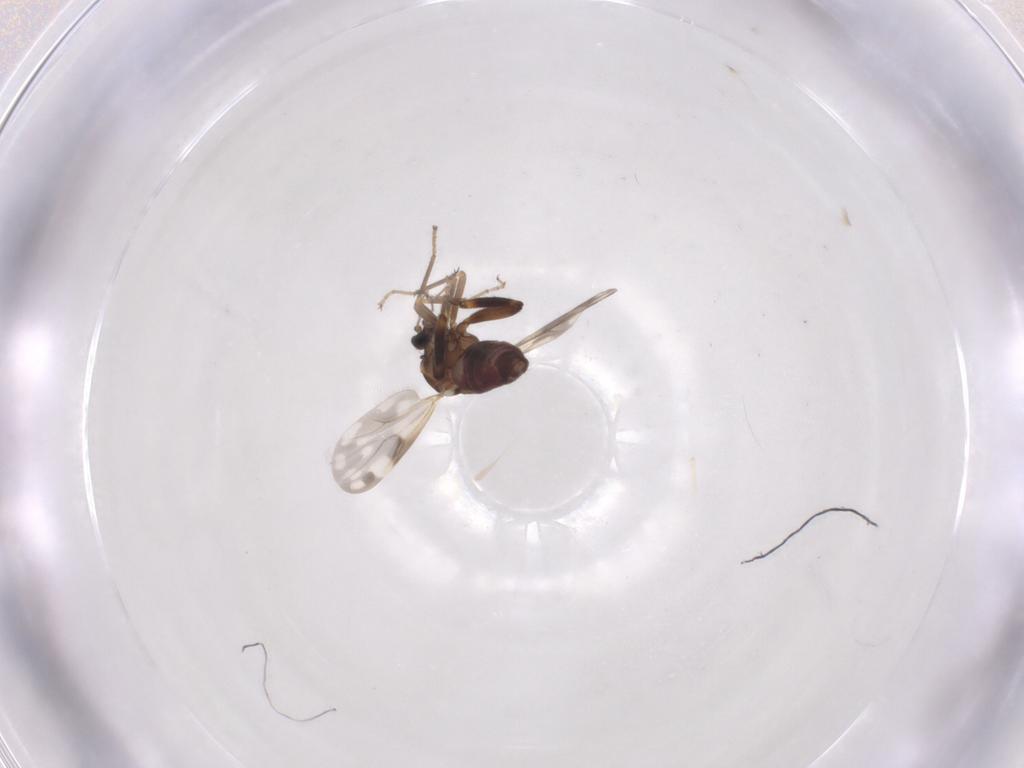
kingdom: Animalia
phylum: Arthropoda
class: Insecta
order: Diptera
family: Ceratopogonidae
